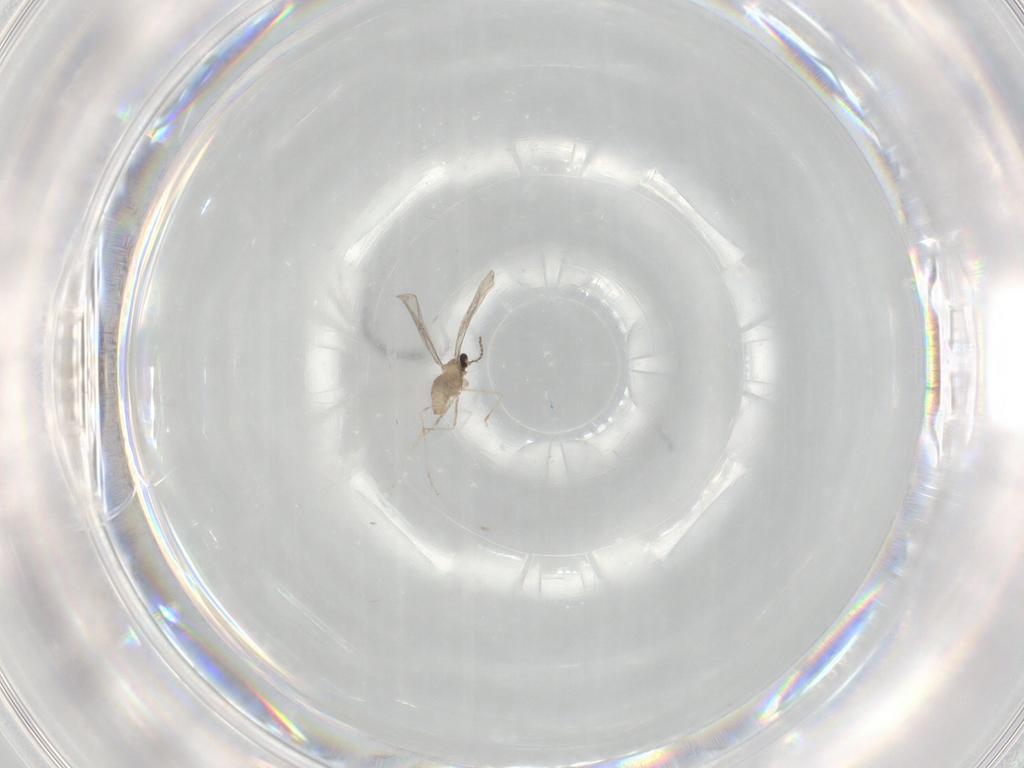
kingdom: Animalia
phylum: Arthropoda
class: Insecta
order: Diptera
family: Cecidomyiidae
